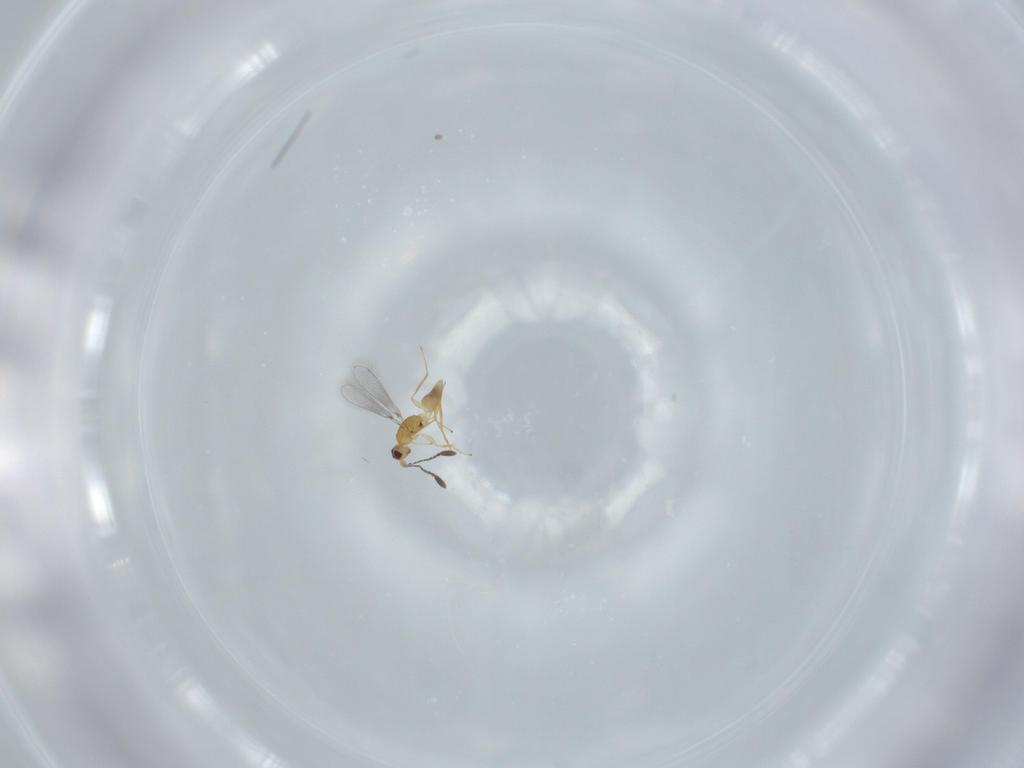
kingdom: Animalia
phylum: Arthropoda
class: Insecta
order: Hymenoptera
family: Mymaridae
